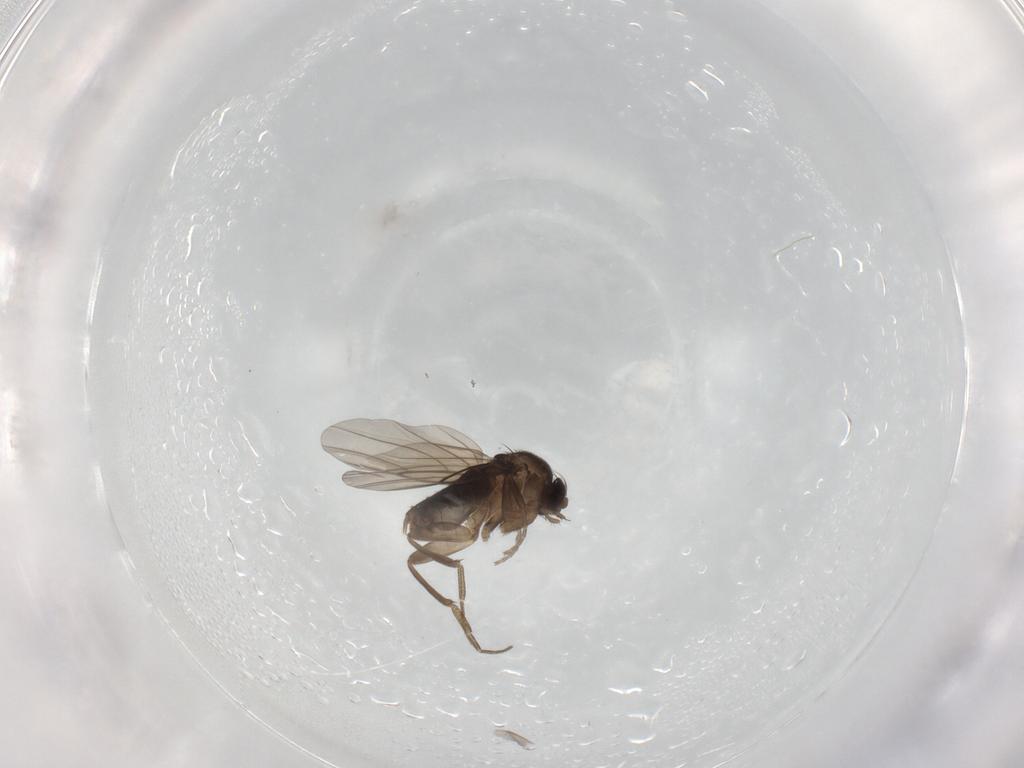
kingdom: Animalia
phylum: Arthropoda
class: Insecta
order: Diptera
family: Phoridae
